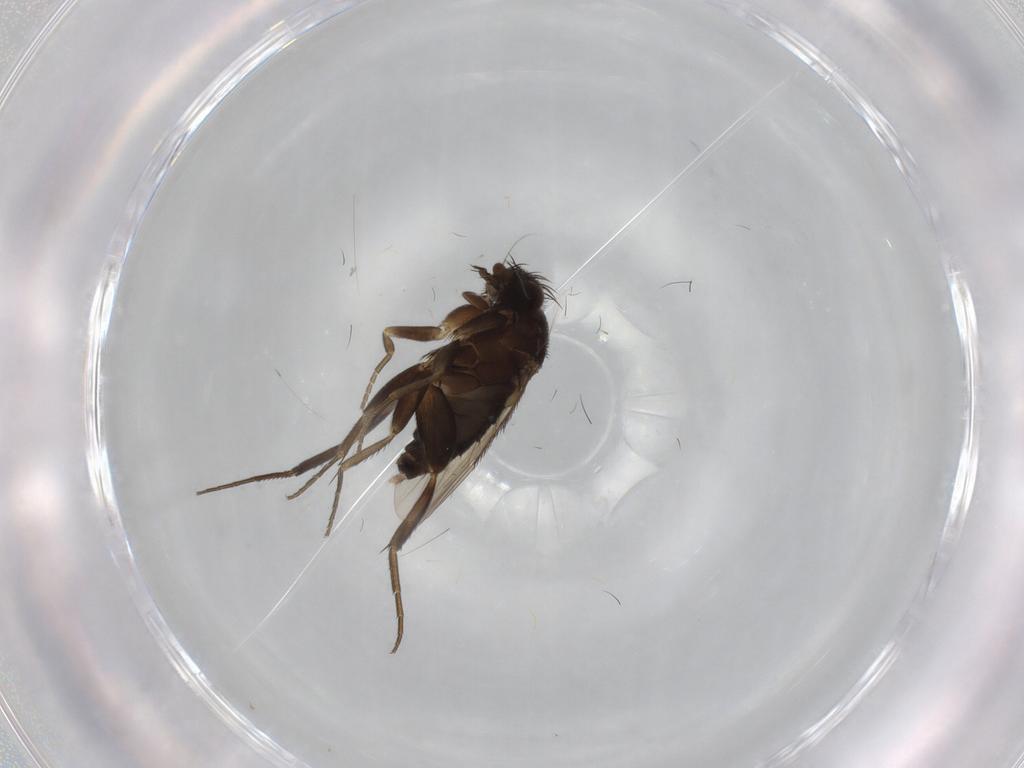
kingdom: Animalia
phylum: Arthropoda
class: Insecta
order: Diptera
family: Phoridae
